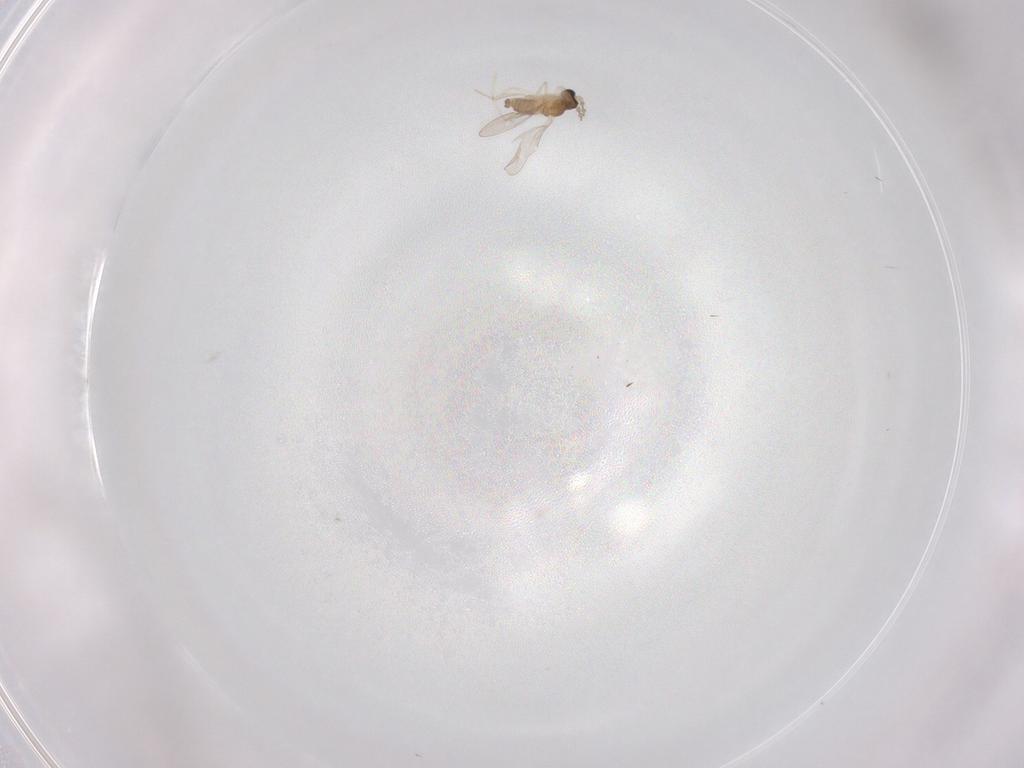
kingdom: Animalia
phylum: Arthropoda
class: Insecta
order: Diptera
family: Cecidomyiidae
